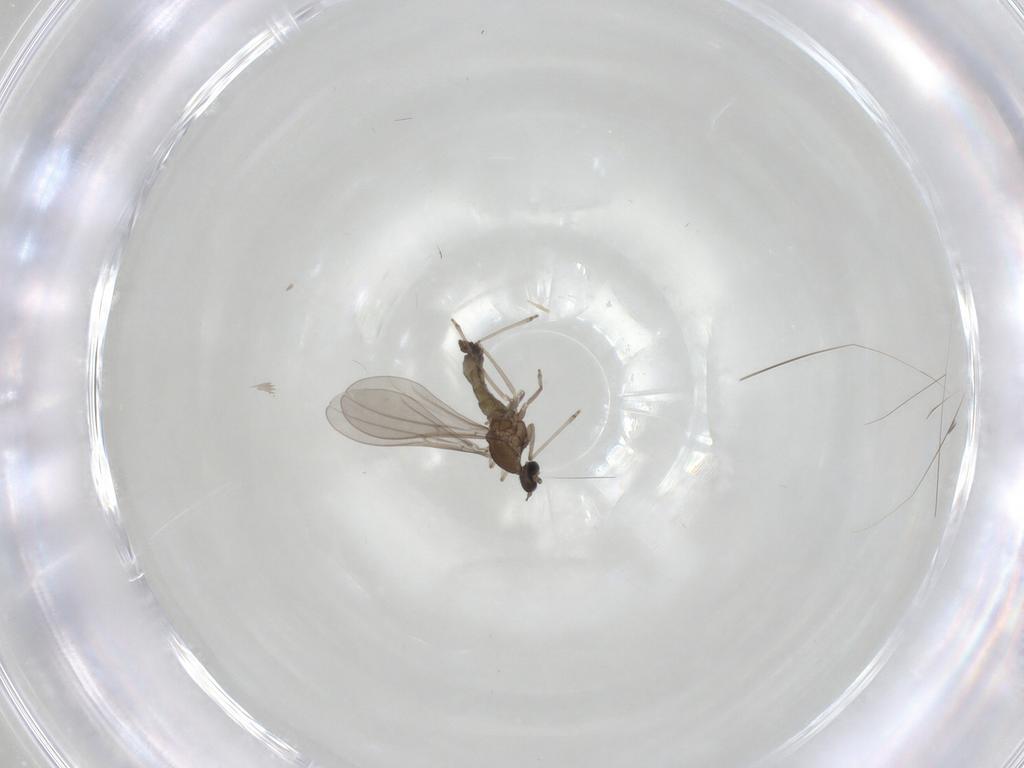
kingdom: Animalia
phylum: Arthropoda
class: Insecta
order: Diptera
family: Cecidomyiidae
